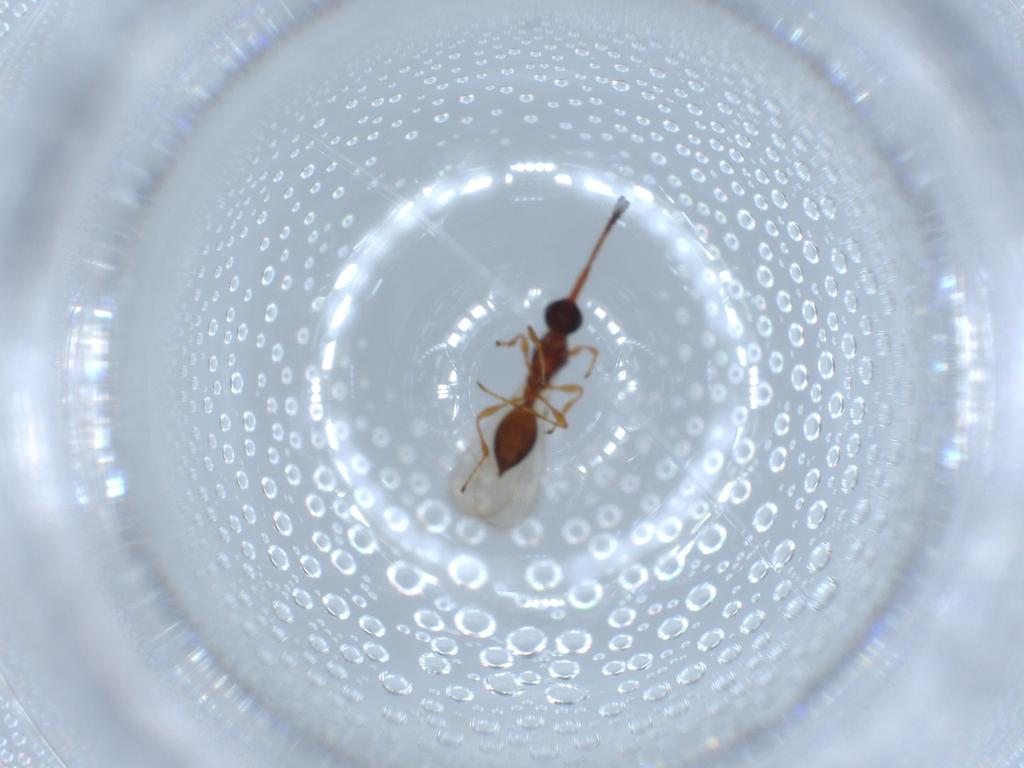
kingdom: Animalia
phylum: Arthropoda
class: Insecta
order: Hymenoptera
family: Diapriidae
